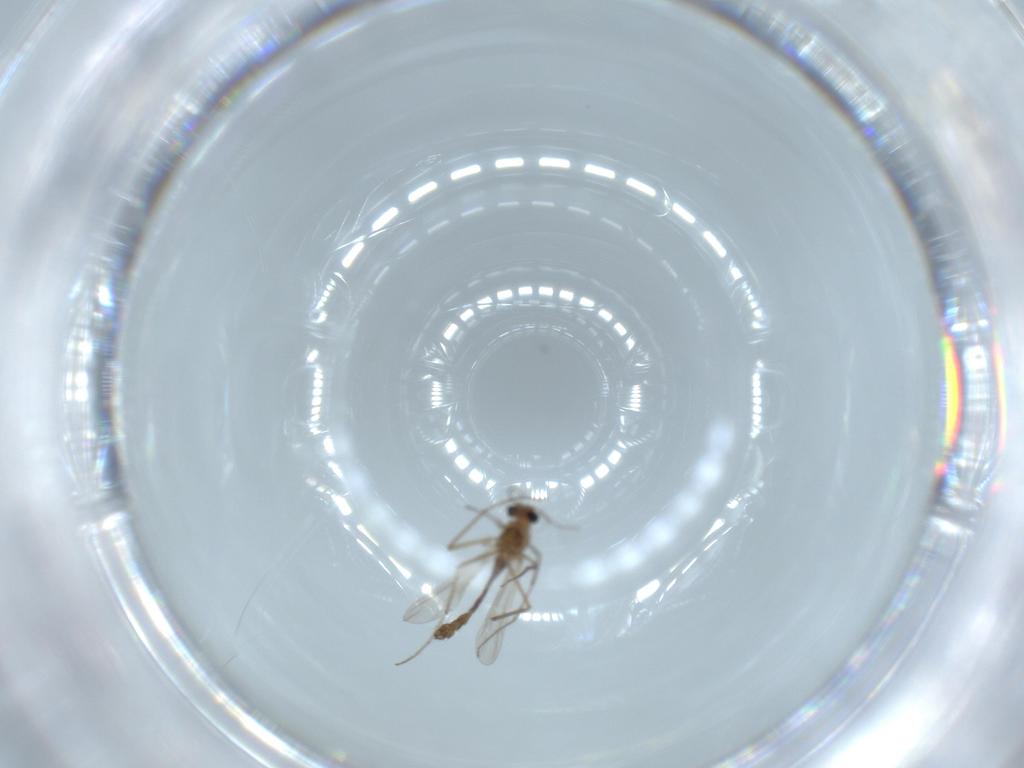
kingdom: Animalia
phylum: Arthropoda
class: Insecta
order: Diptera
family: Chironomidae
